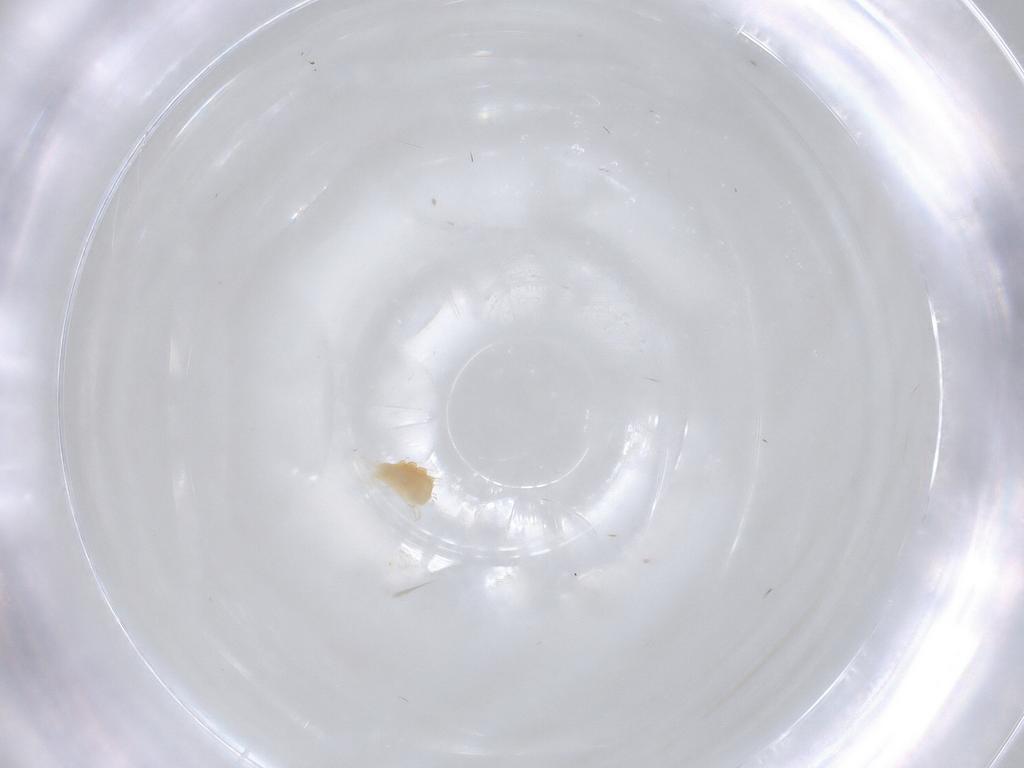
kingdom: Animalia
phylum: Arthropoda
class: Arachnida
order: Trombidiformes
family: Tetranychidae
